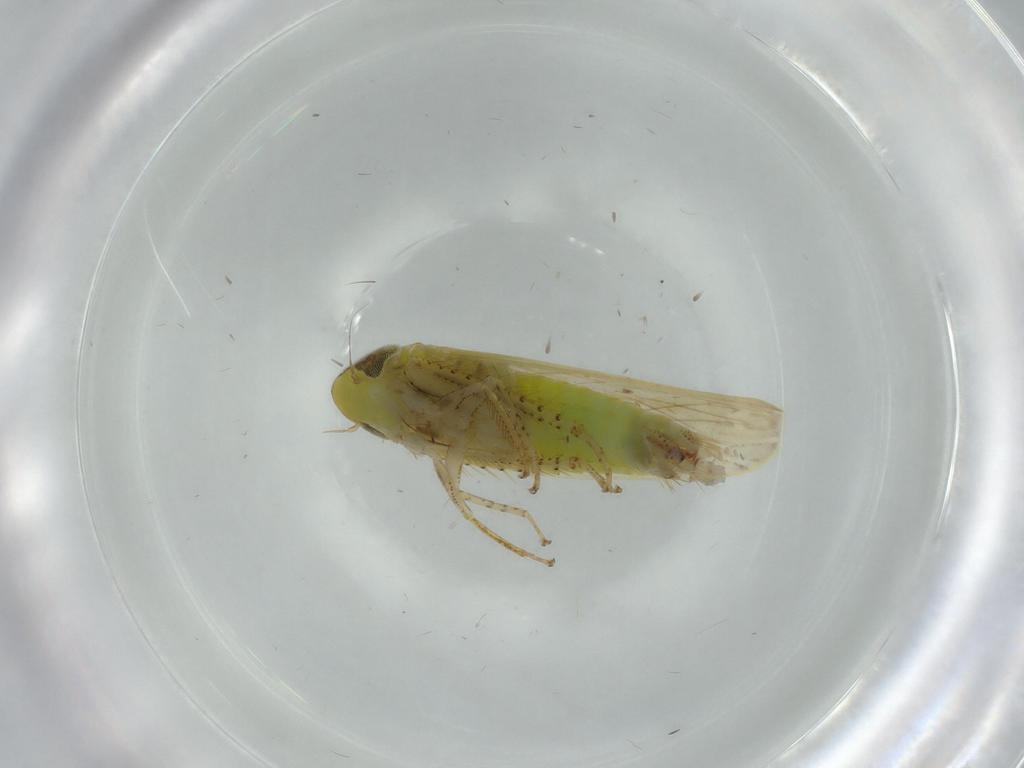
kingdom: Animalia
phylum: Arthropoda
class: Insecta
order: Hemiptera
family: Cicadellidae
